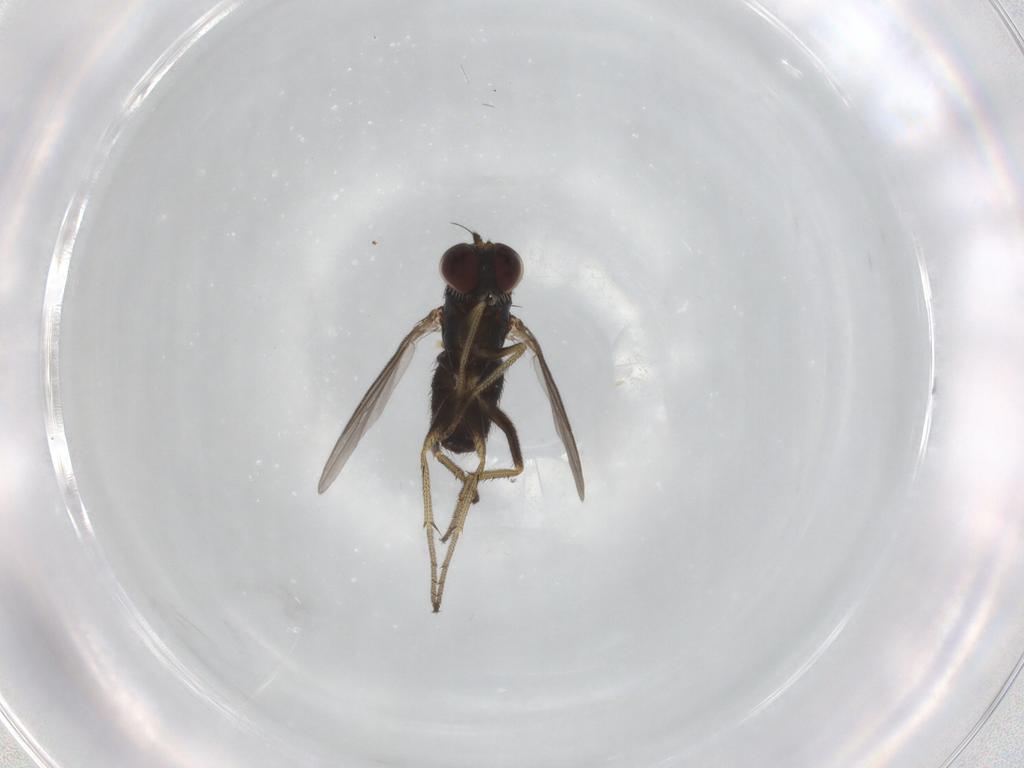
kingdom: Animalia
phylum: Arthropoda
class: Insecta
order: Diptera
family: Dolichopodidae
